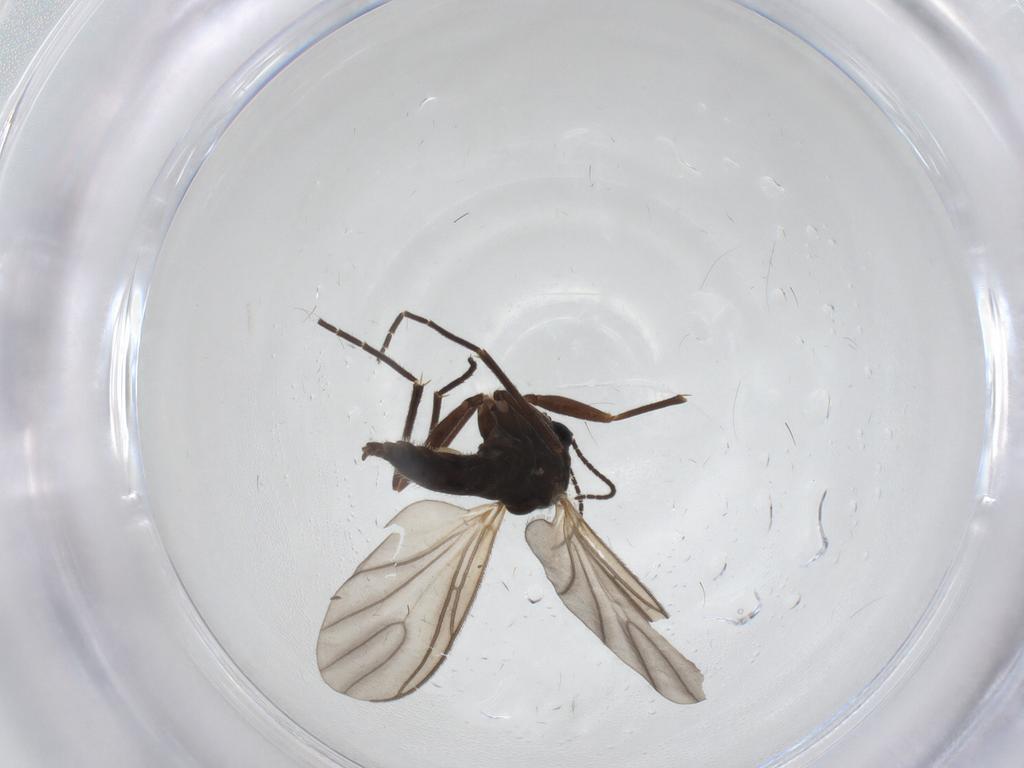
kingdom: Animalia
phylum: Arthropoda
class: Insecta
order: Diptera
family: Sciaridae
